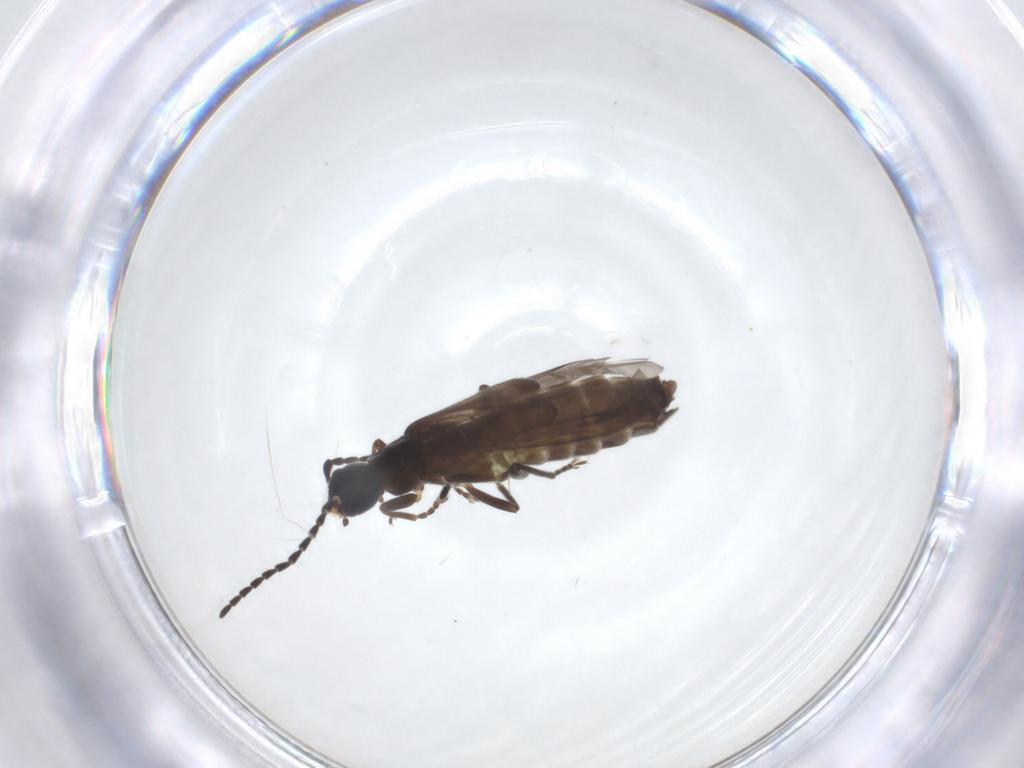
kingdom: Animalia
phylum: Arthropoda
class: Insecta
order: Coleoptera
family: Cantharidae
